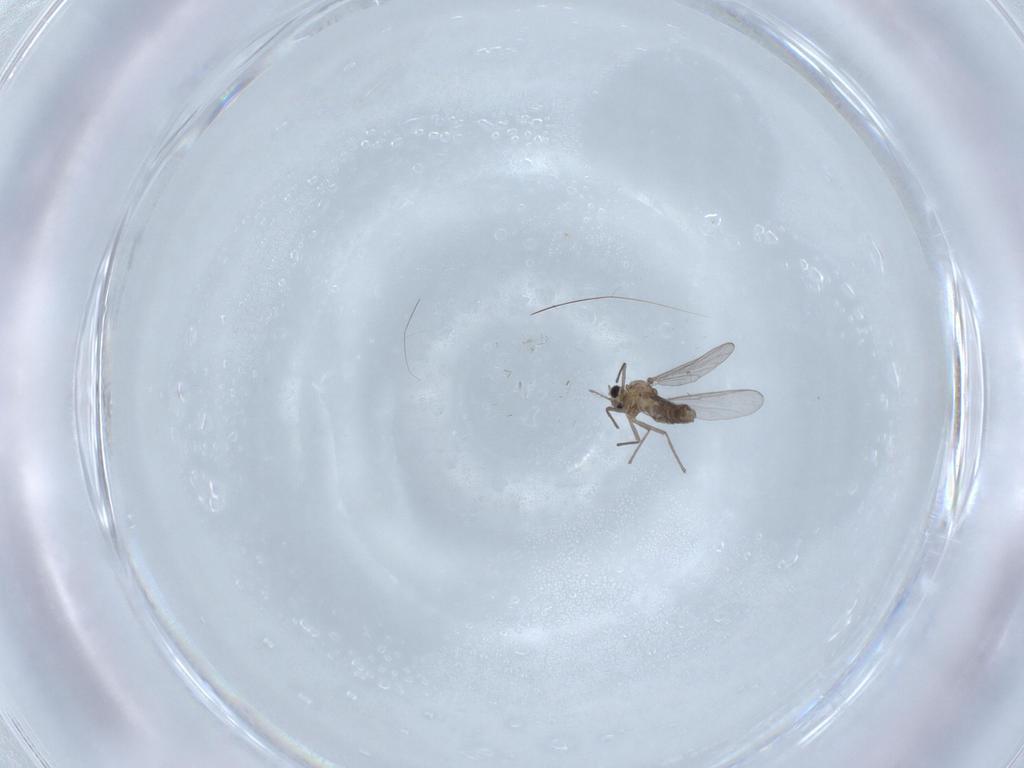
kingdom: Animalia
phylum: Arthropoda
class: Insecta
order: Diptera
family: Chironomidae
